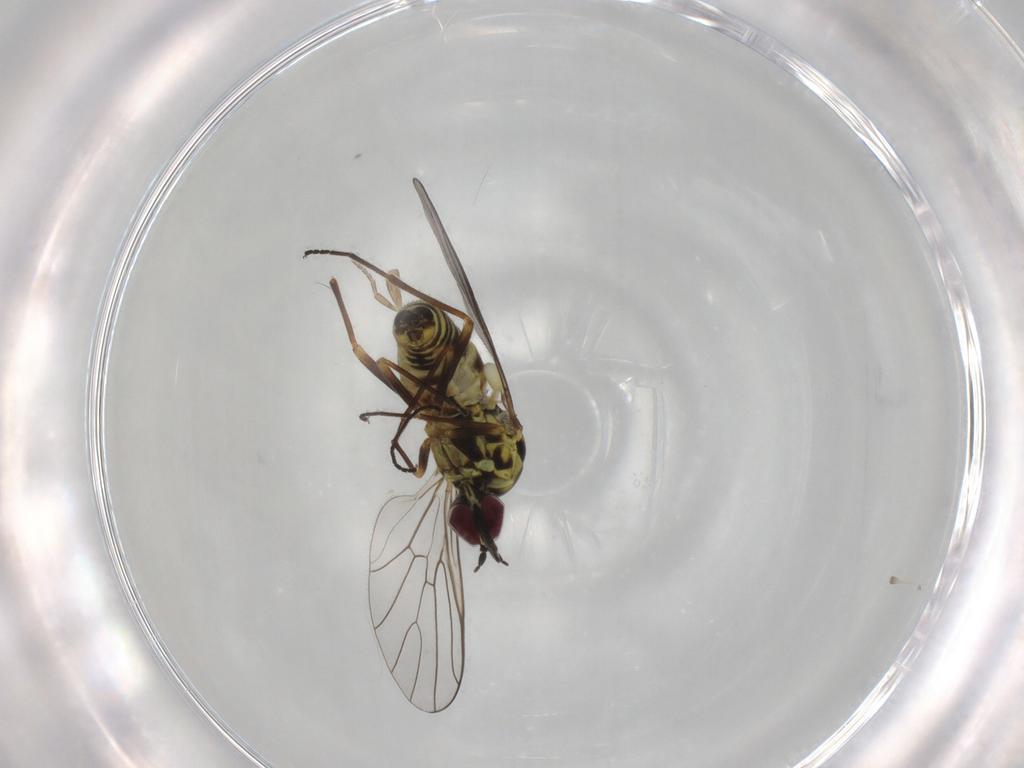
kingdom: Animalia
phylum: Arthropoda
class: Insecta
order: Diptera
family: Phoridae
